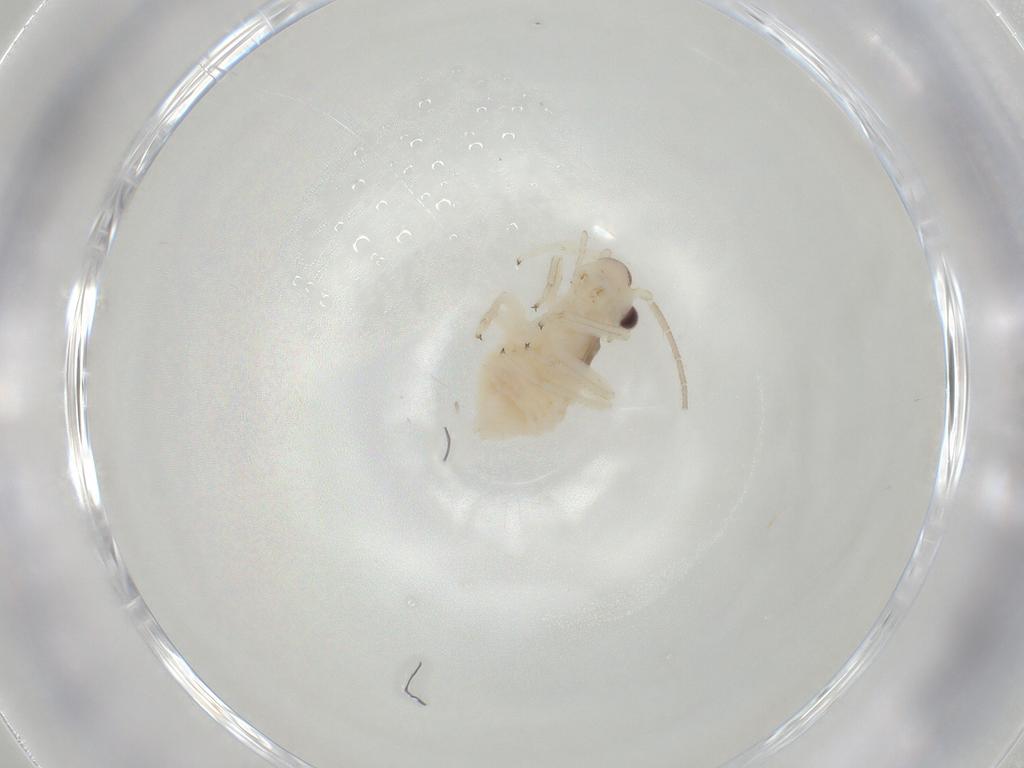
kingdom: Animalia
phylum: Arthropoda
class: Insecta
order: Psocodea
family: Amphipsocidae
